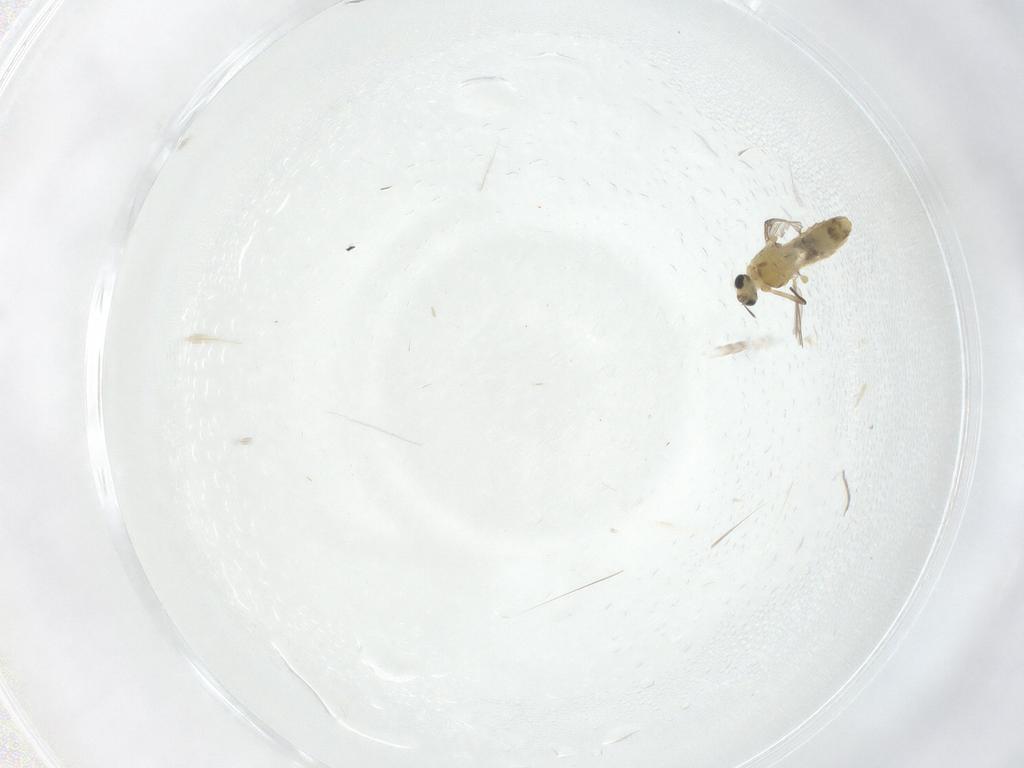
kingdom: Animalia
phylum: Arthropoda
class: Insecta
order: Diptera
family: Chironomidae
